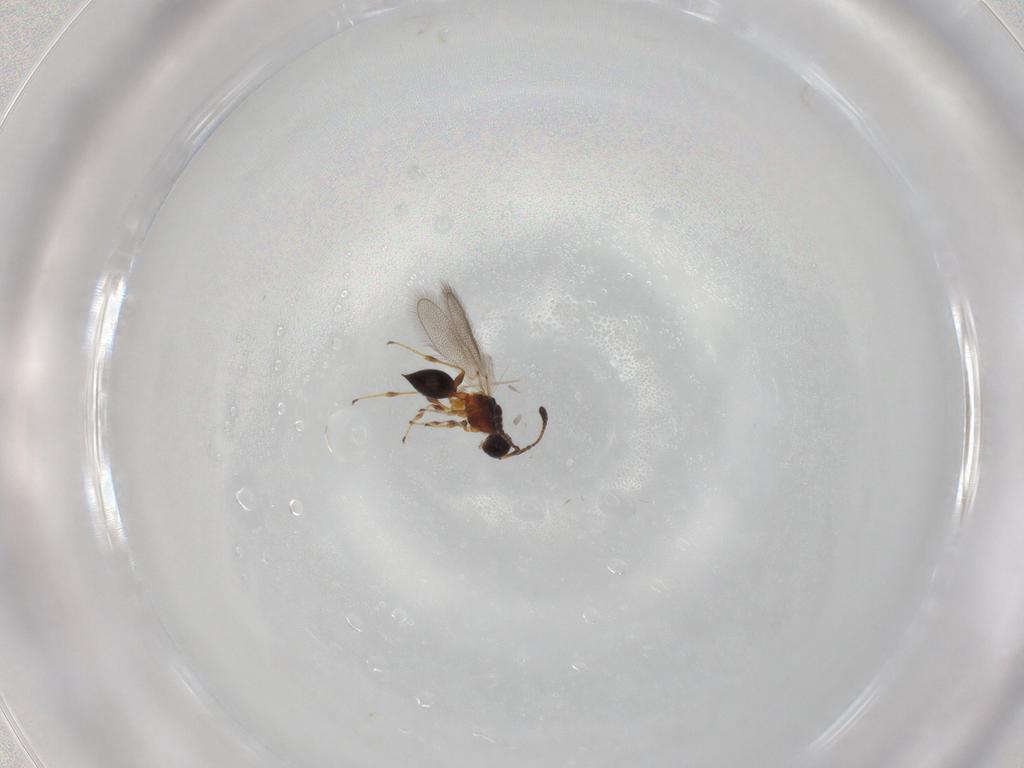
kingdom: Animalia
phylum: Arthropoda
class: Insecta
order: Hymenoptera
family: Diapriidae
